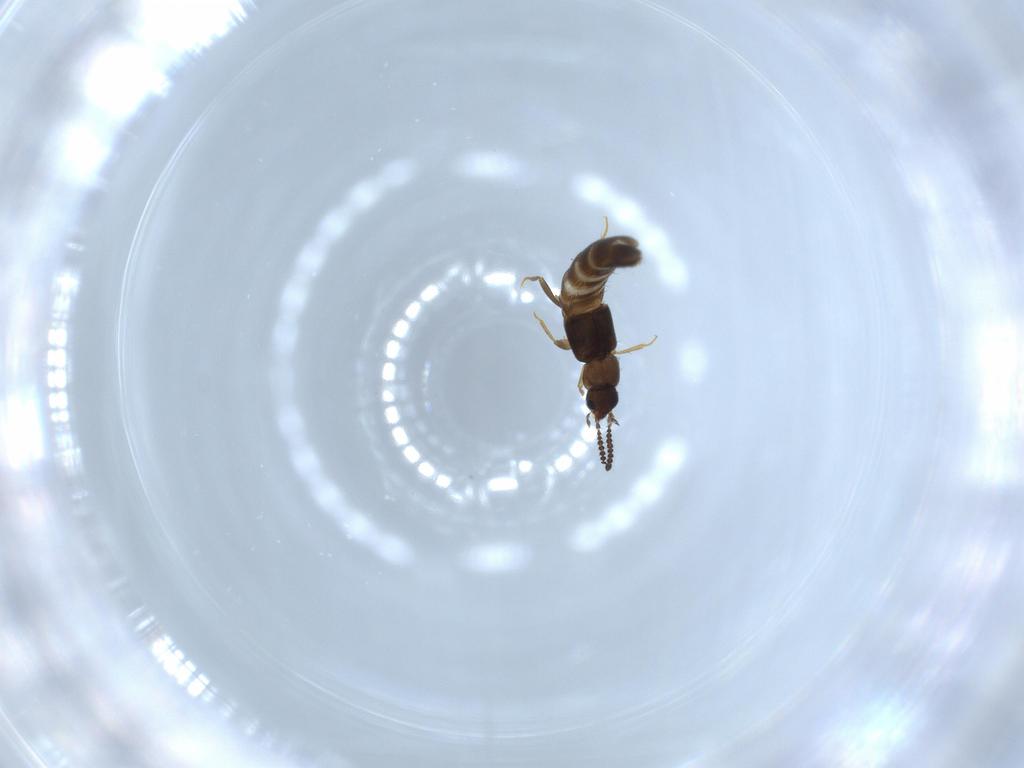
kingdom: Animalia
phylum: Arthropoda
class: Insecta
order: Coleoptera
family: Staphylinidae
